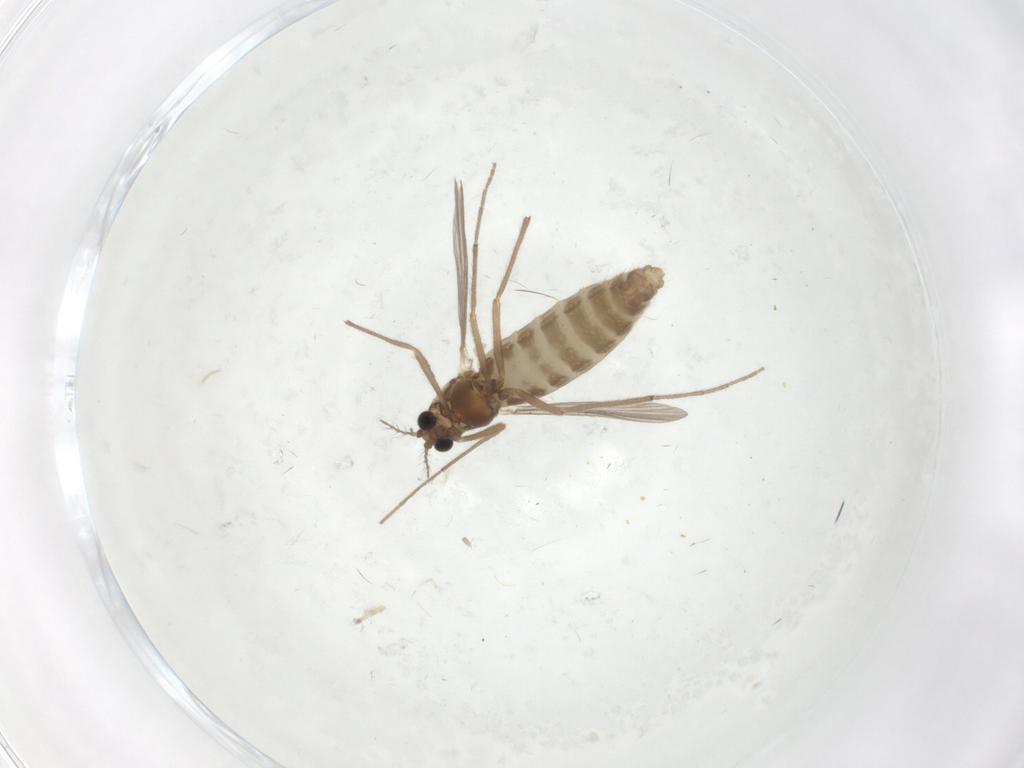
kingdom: Animalia
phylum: Arthropoda
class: Insecta
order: Diptera
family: Chironomidae
